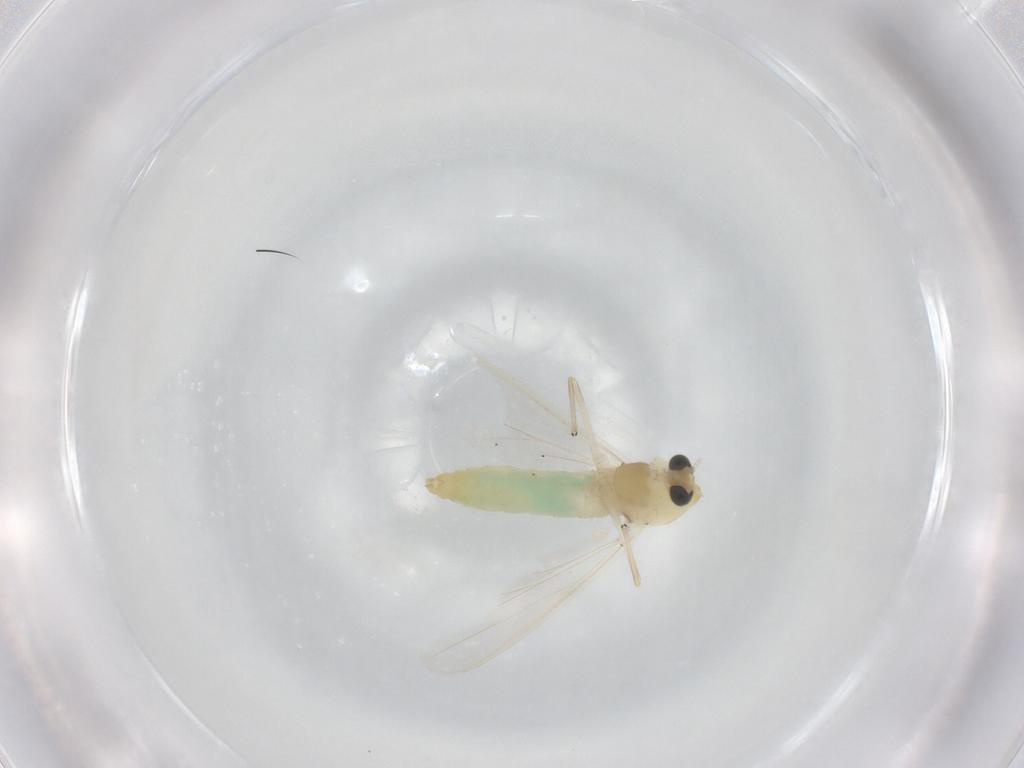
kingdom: Animalia
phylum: Arthropoda
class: Insecta
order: Diptera
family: Chironomidae
